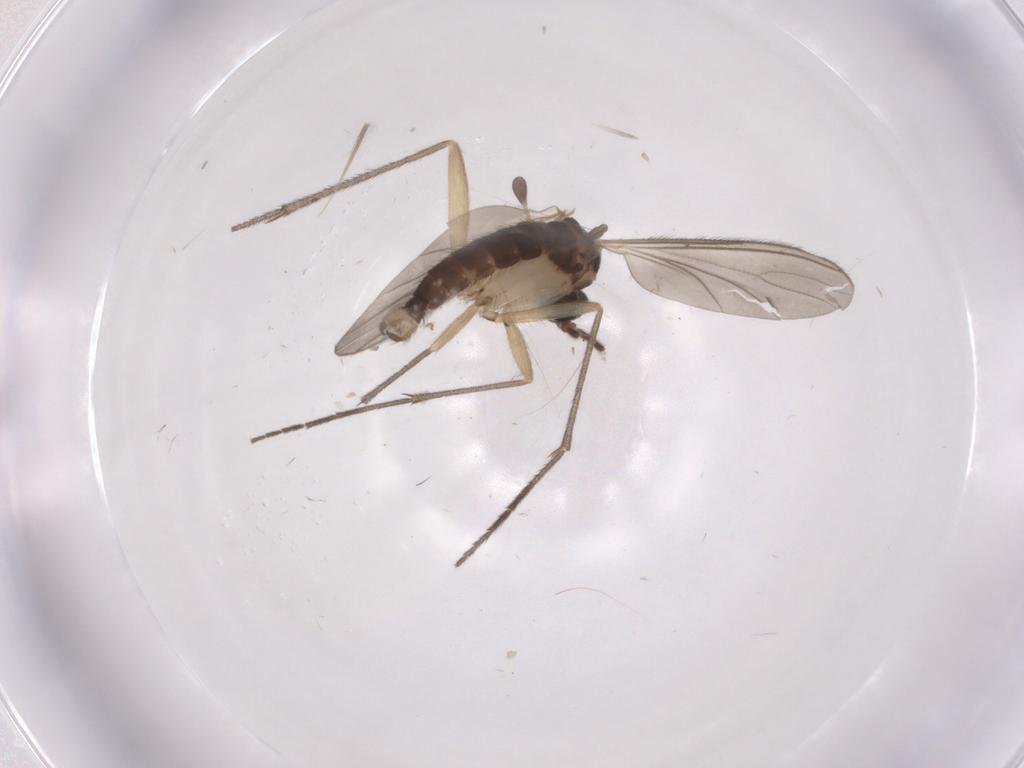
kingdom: Animalia
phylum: Arthropoda
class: Insecta
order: Diptera
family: Sciaridae
